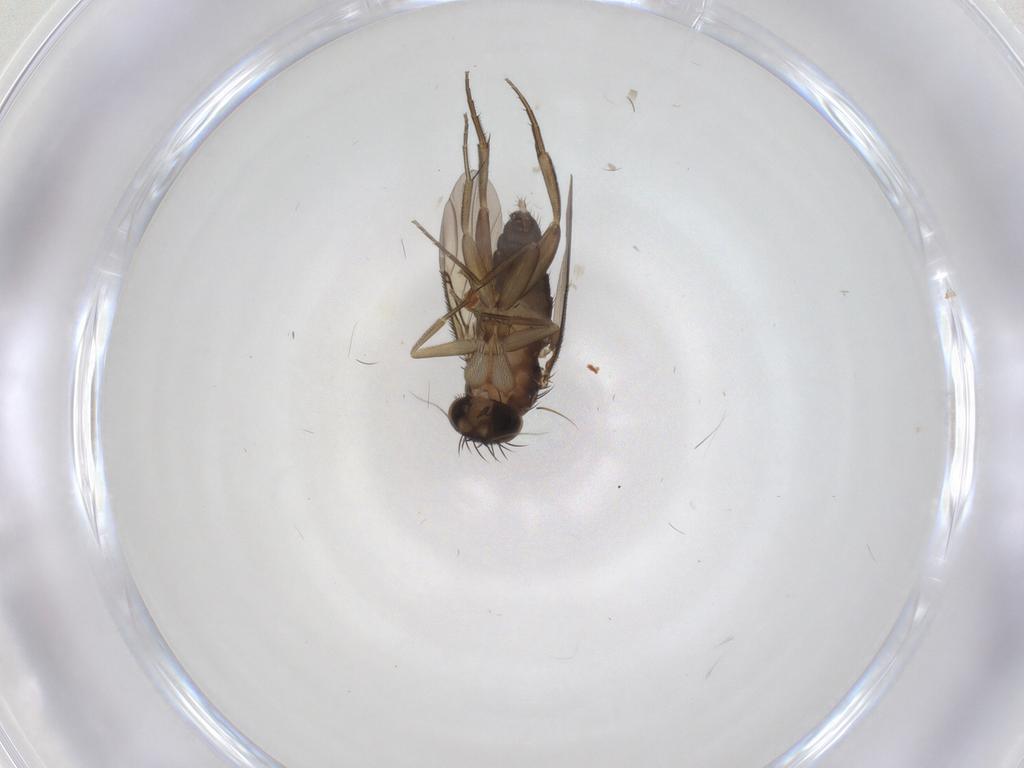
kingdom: Animalia
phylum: Arthropoda
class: Insecta
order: Diptera
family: Phoridae
